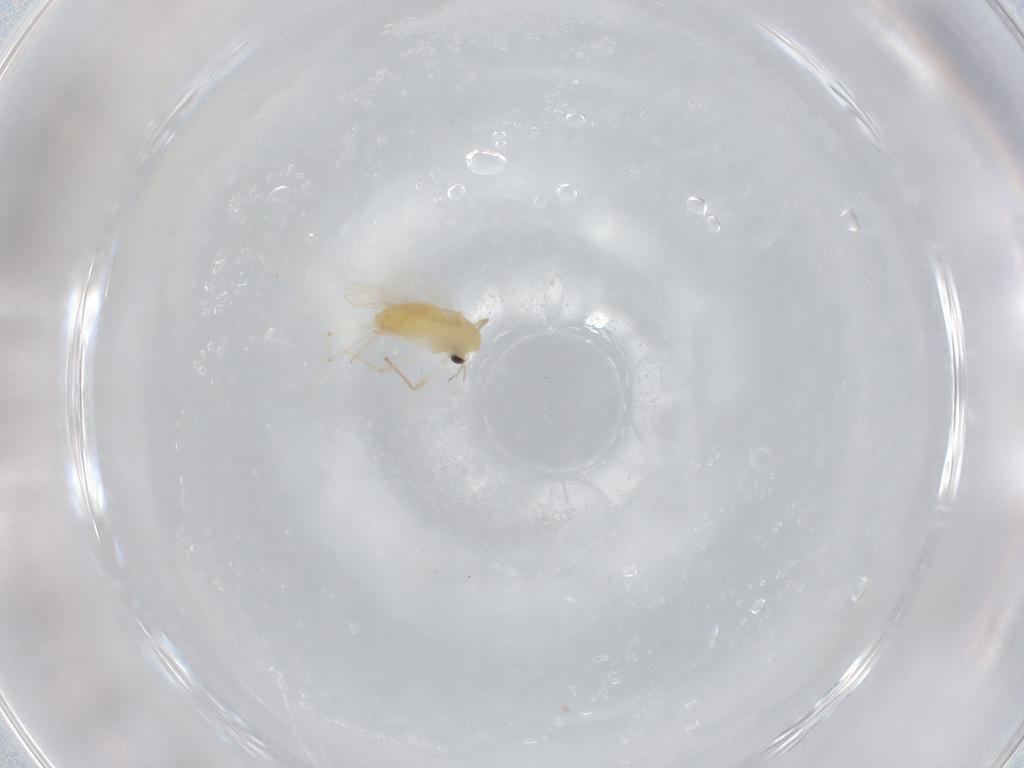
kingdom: Animalia
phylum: Arthropoda
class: Insecta
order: Diptera
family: Chironomidae
